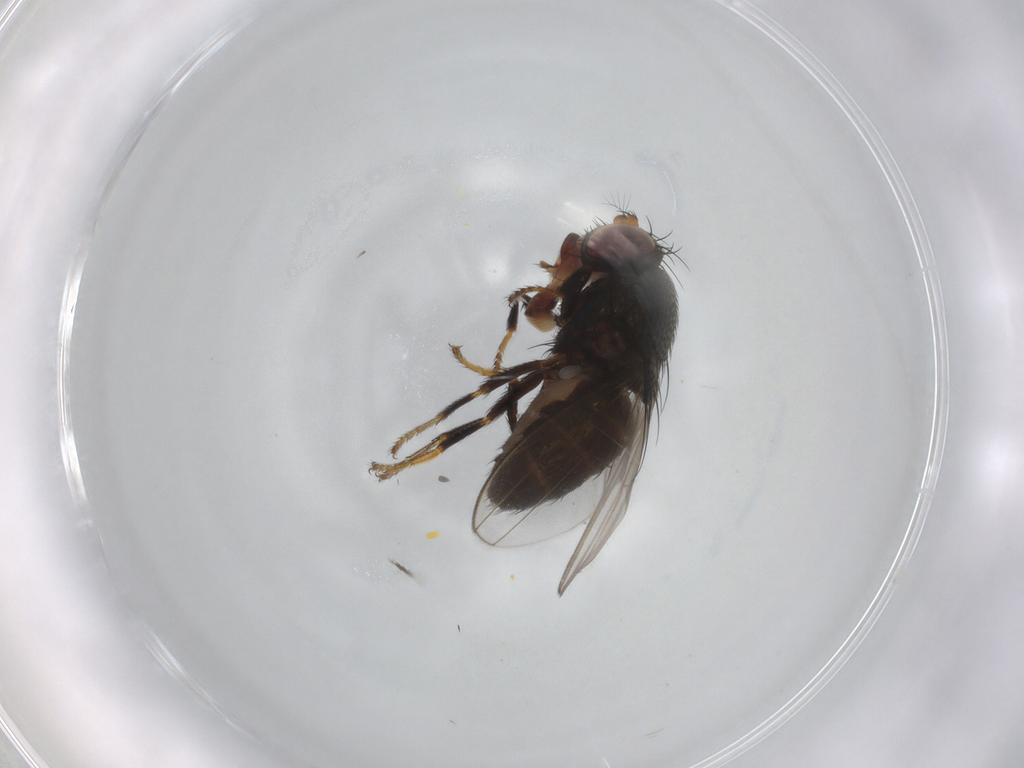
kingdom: Animalia
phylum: Arthropoda
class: Insecta
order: Diptera
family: Ephydridae
